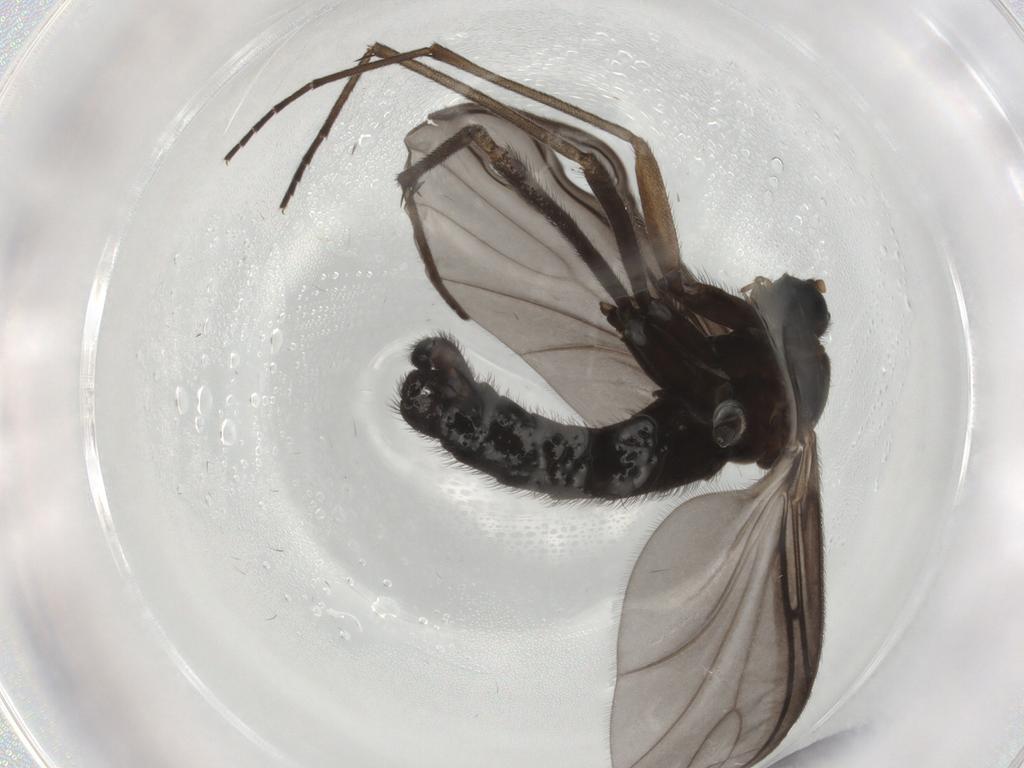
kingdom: Animalia
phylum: Arthropoda
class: Insecta
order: Diptera
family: Sciaridae
